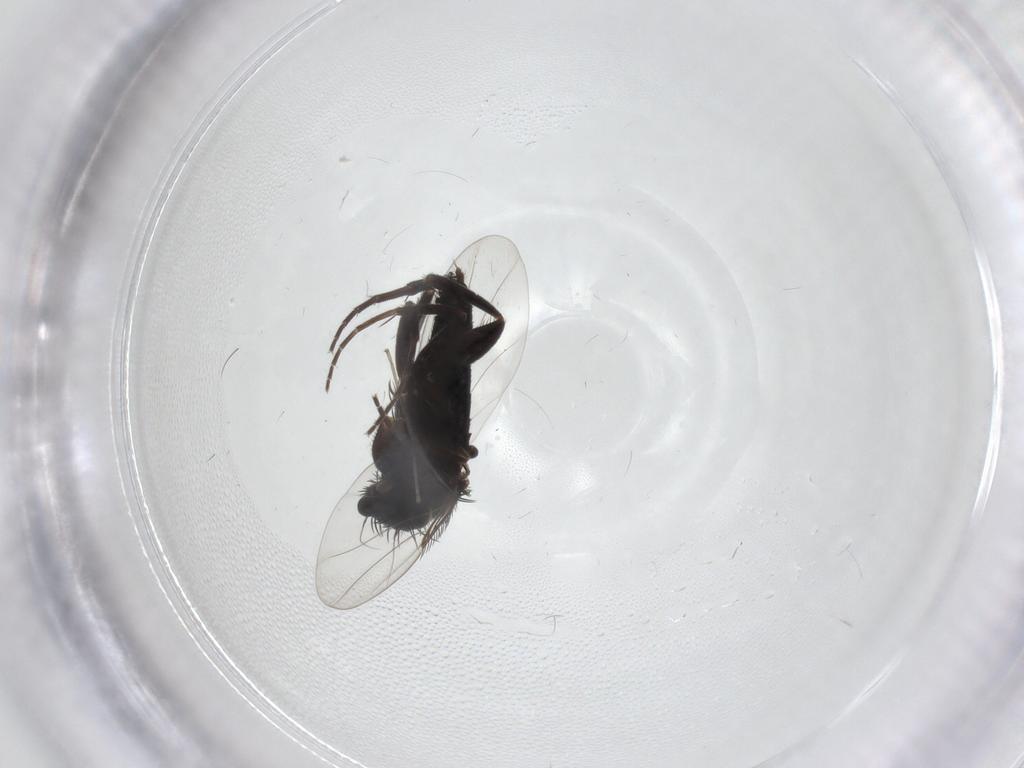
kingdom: Animalia
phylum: Arthropoda
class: Insecta
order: Diptera
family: Phoridae
